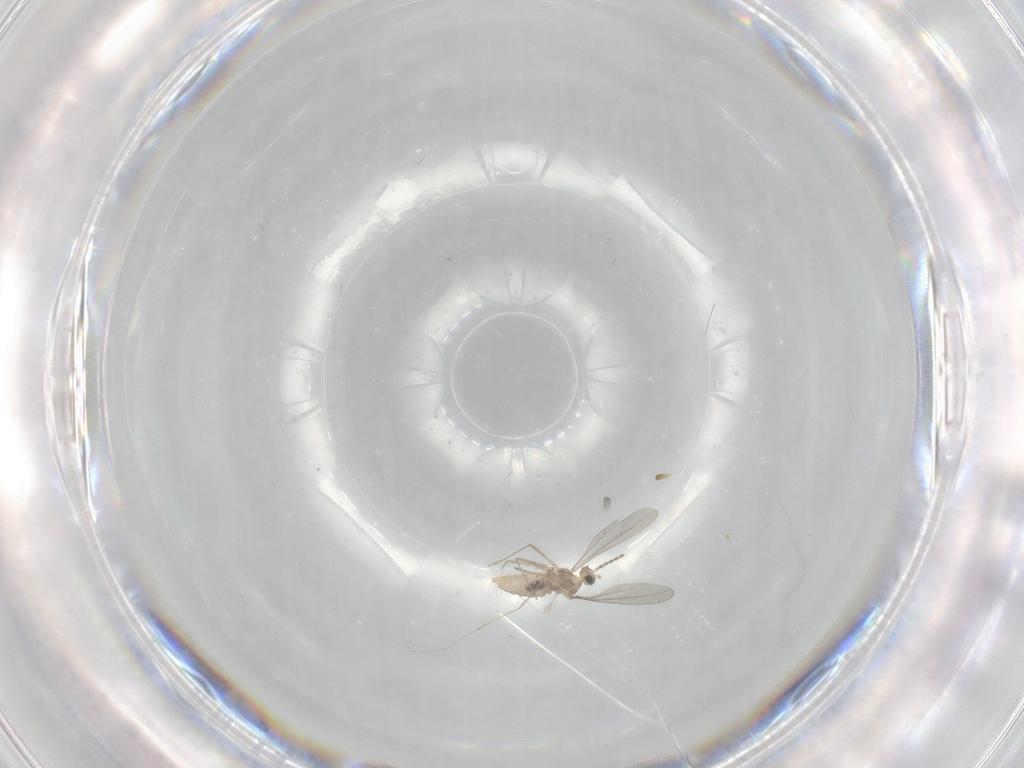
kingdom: Animalia
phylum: Arthropoda
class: Insecta
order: Diptera
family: Cecidomyiidae
